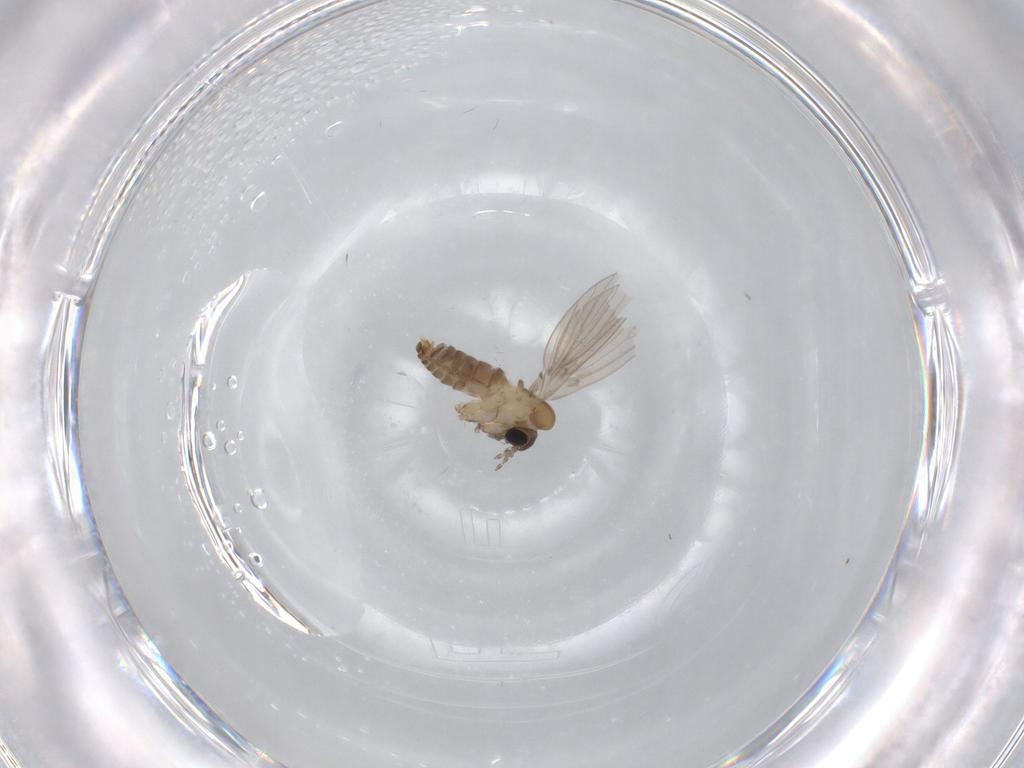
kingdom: Animalia
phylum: Arthropoda
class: Insecta
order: Diptera
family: Psychodidae
